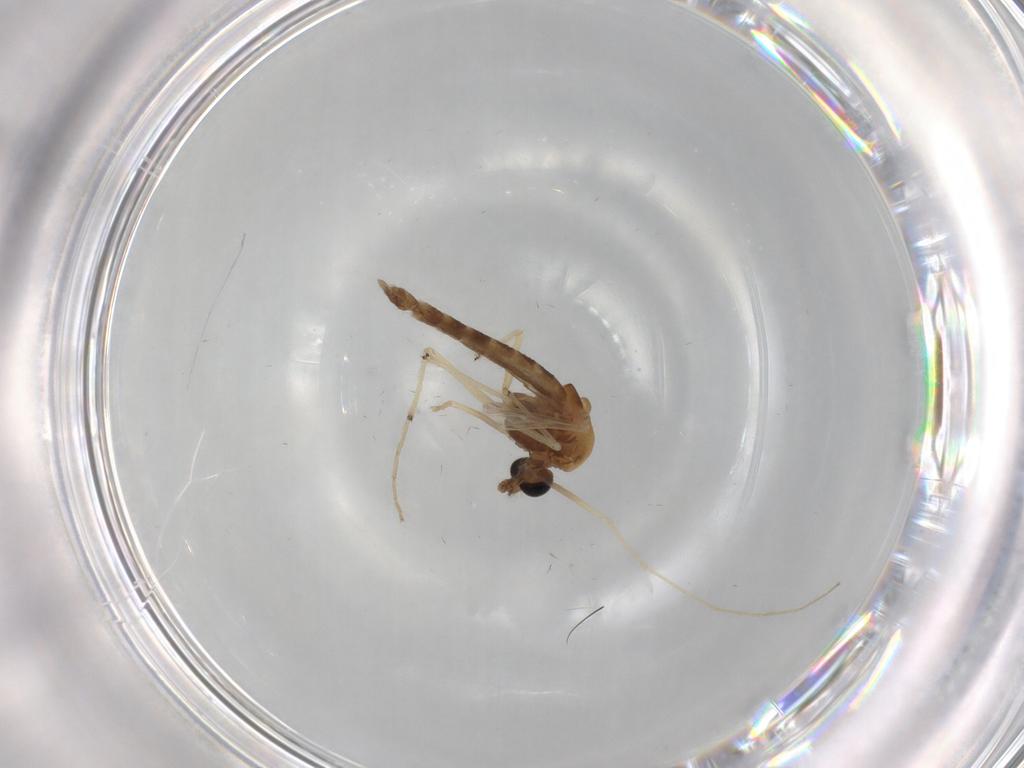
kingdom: Animalia
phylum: Arthropoda
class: Insecta
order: Diptera
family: Chironomidae
